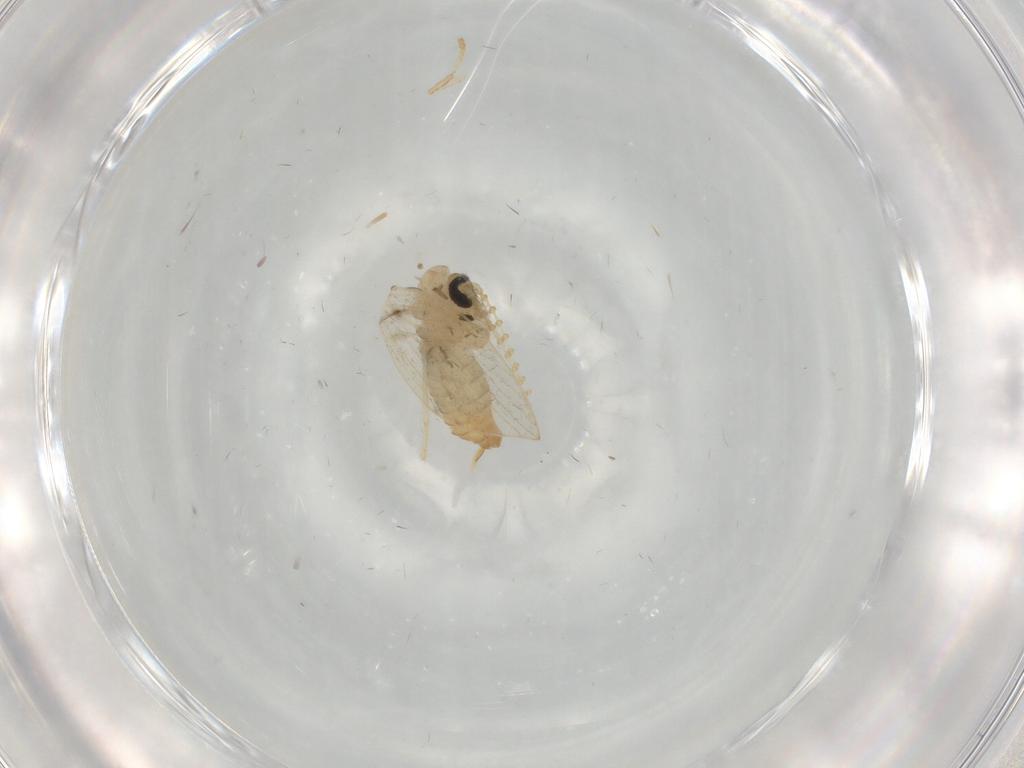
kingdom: Animalia
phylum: Arthropoda
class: Insecta
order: Diptera
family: Psychodidae
